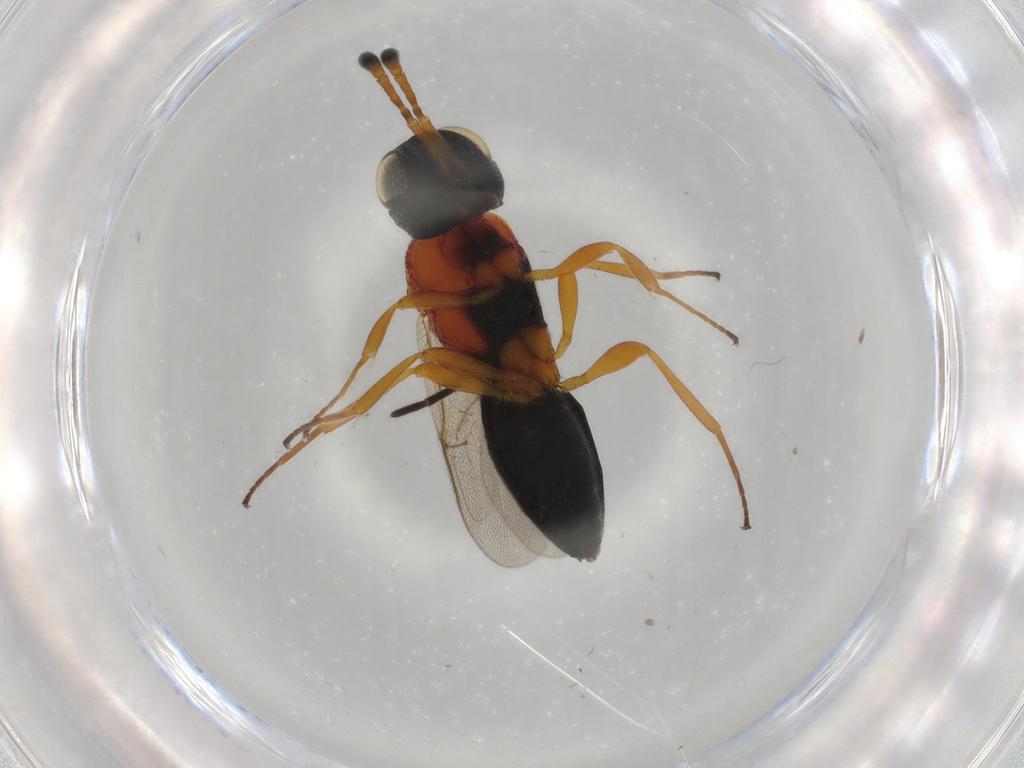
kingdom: Animalia
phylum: Arthropoda
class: Insecta
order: Hymenoptera
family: Scelionidae
